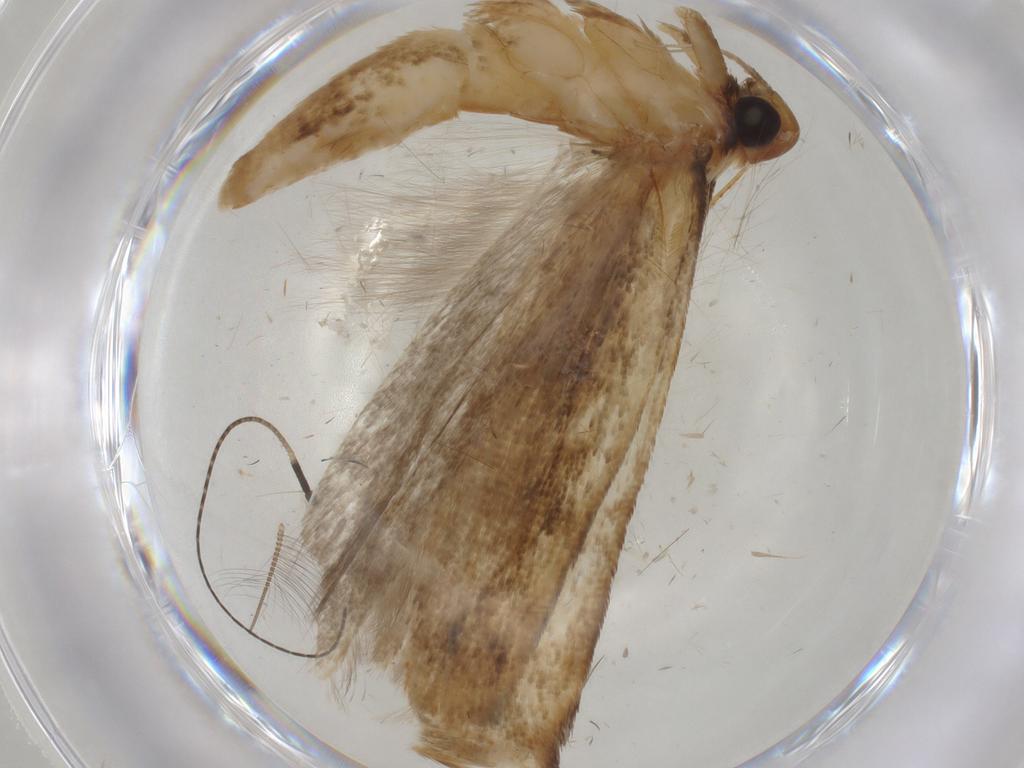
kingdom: Animalia
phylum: Arthropoda
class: Insecta
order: Lepidoptera
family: Gelechiidae
